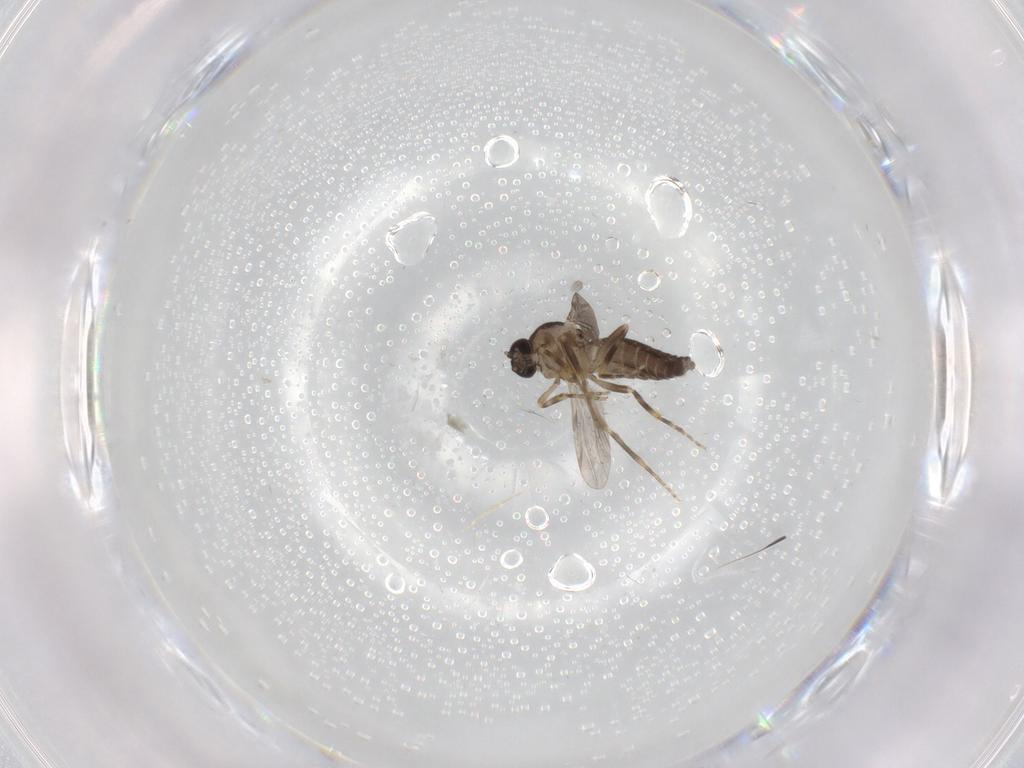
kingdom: Animalia
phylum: Arthropoda
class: Insecta
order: Diptera
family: Ceratopogonidae
